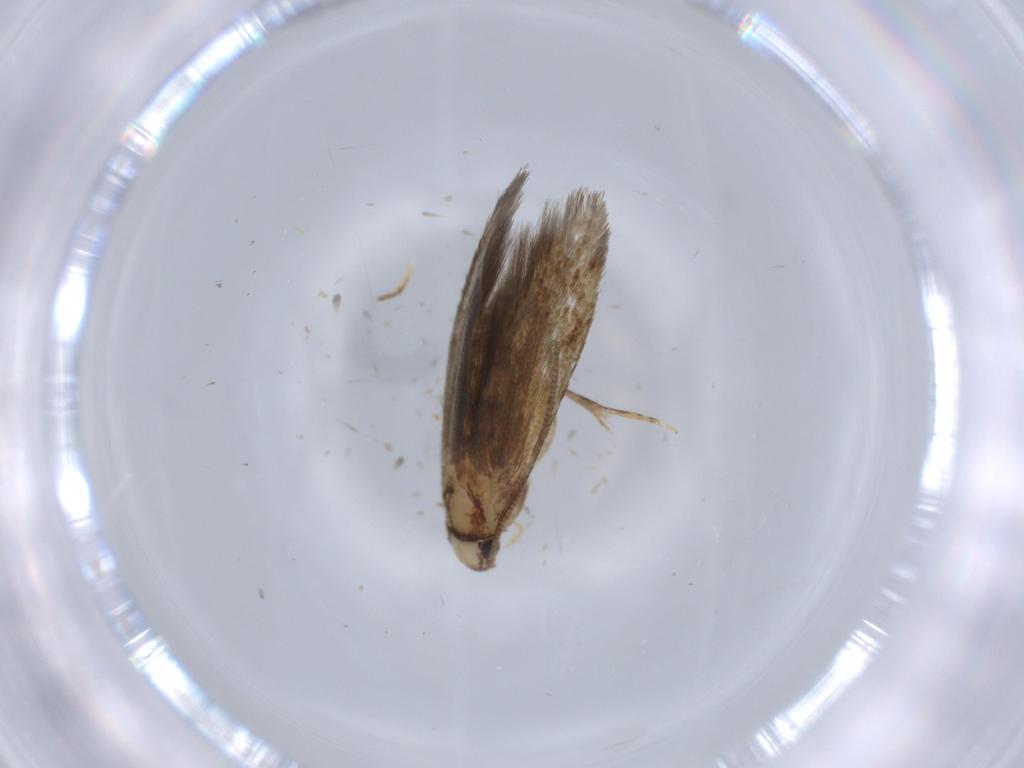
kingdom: Animalia
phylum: Arthropoda
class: Insecta
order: Lepidoptera
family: Tineidae
